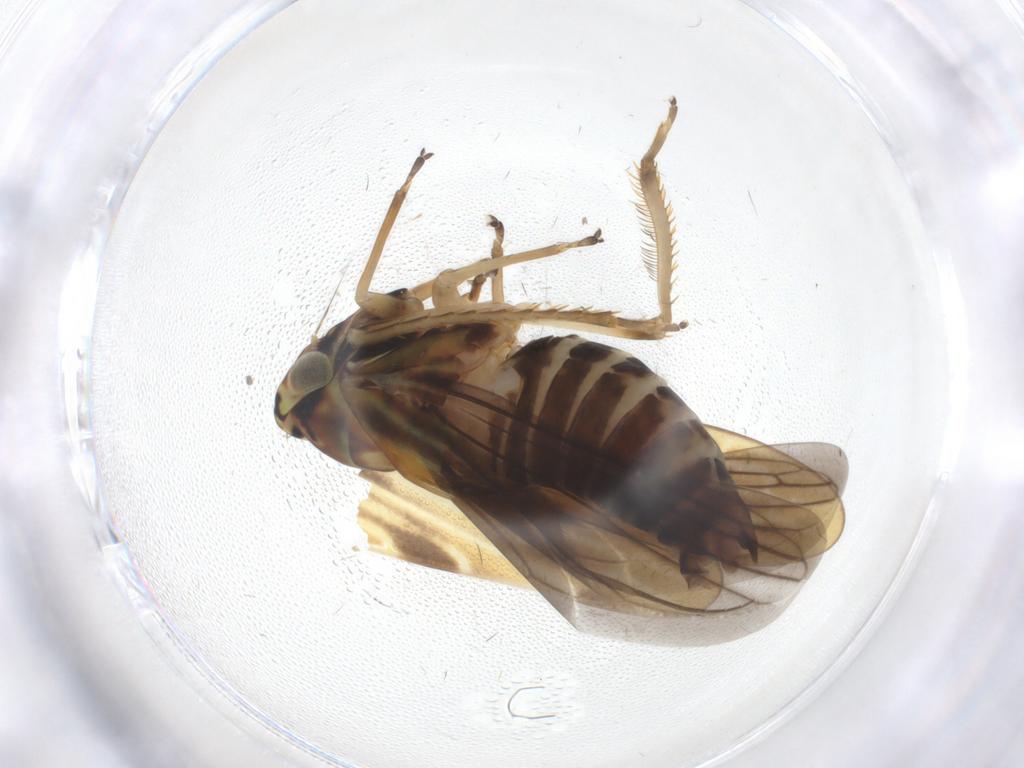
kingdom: Animalia
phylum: Arthropoda
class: Insecta
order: Hemiptera
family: Cicadellidae
